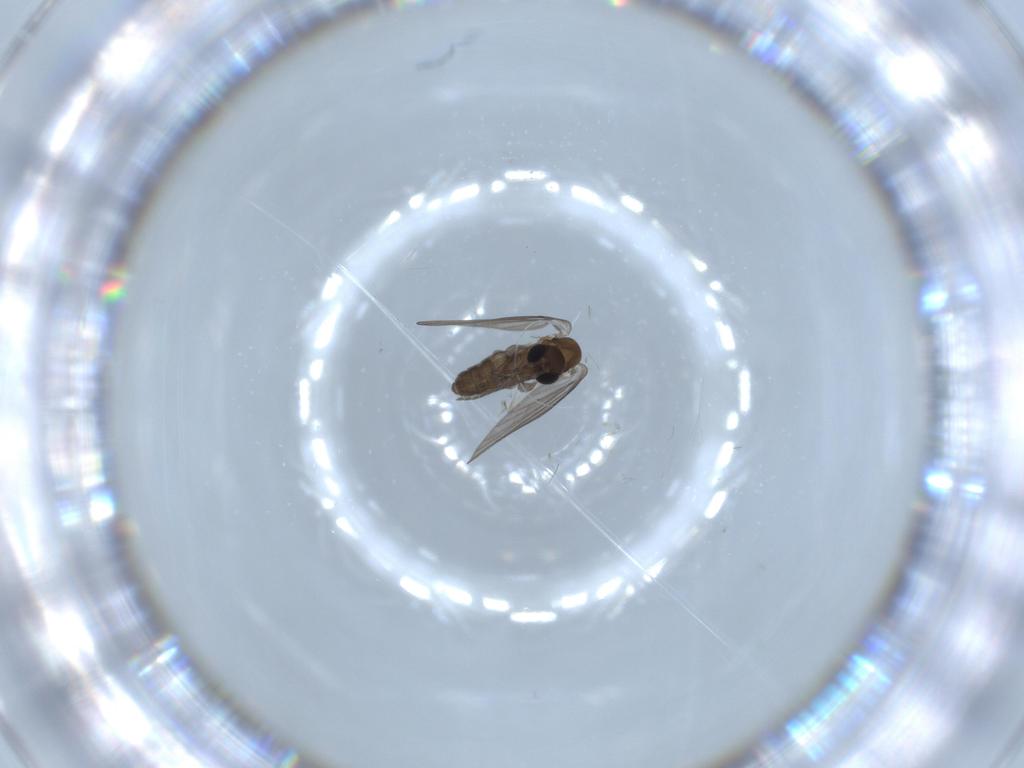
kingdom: Animalia
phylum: Arthropoda
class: Insecta
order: Diptera
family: Psychodidae
